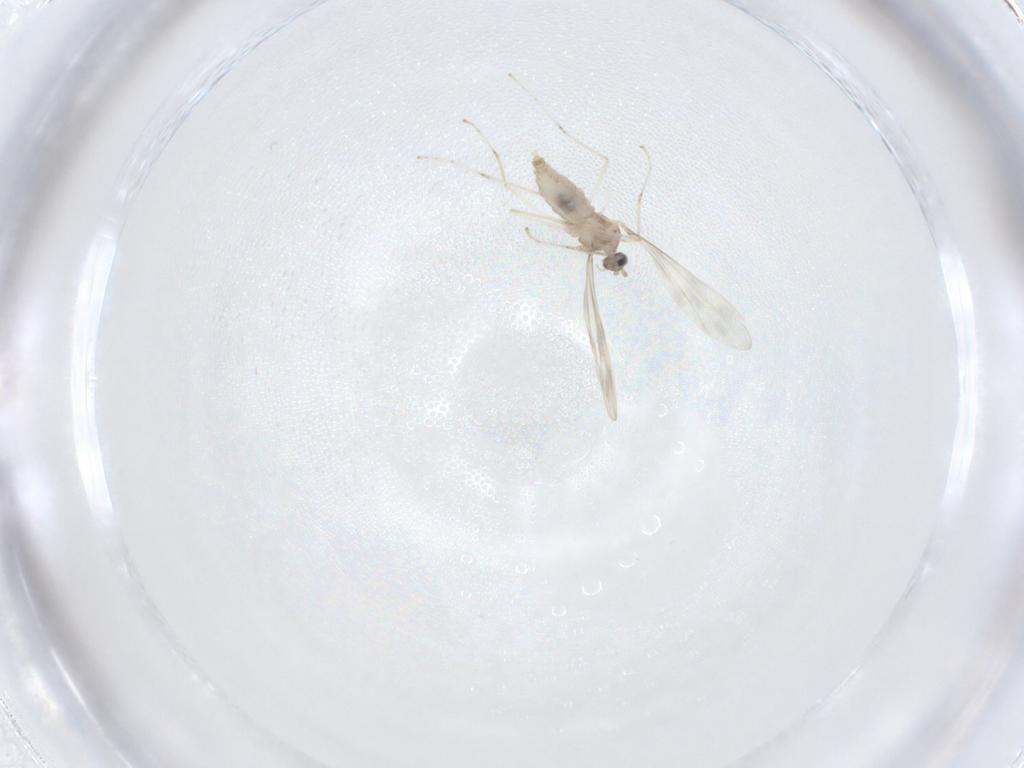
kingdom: Animalia
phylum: Arthropoda
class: Insecta
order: Diptera
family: Cecidomyiidae
